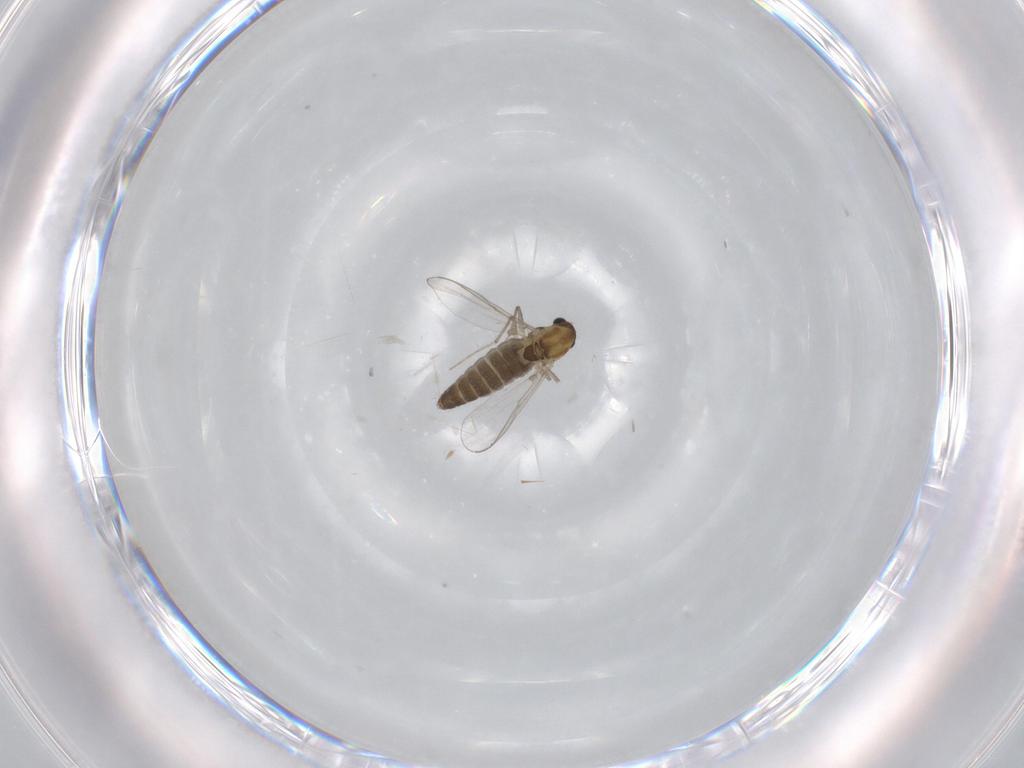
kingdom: Animalia
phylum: Arthropoda
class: Insecta
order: Diptera
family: Chironomidae
